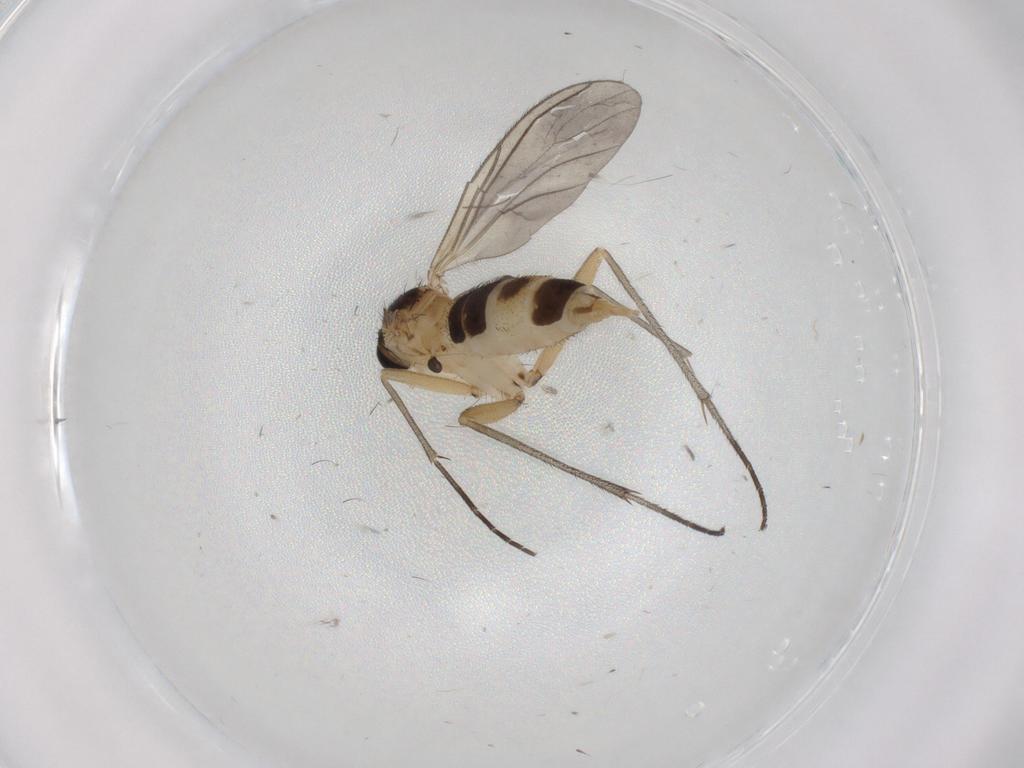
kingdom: Animalia
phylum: Arthropoda
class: Insecta
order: Diptera
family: Sciaridae
